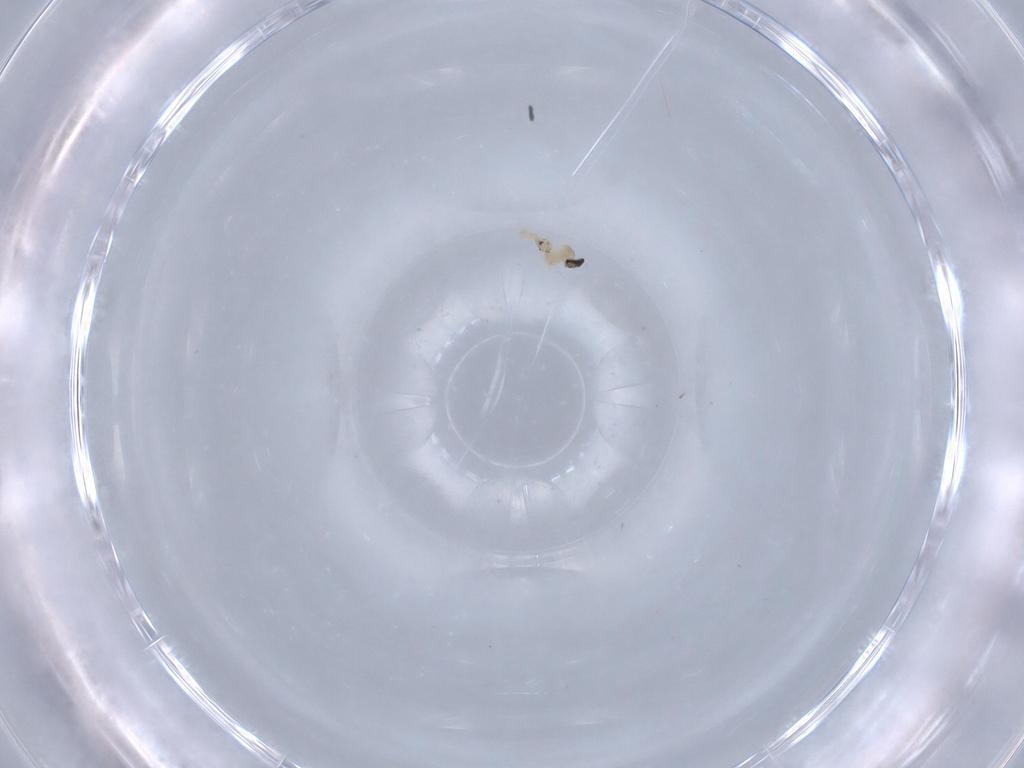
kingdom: Animalia
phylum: Arthropoda
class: Insecta
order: Diptera
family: Cecidomyiidae
